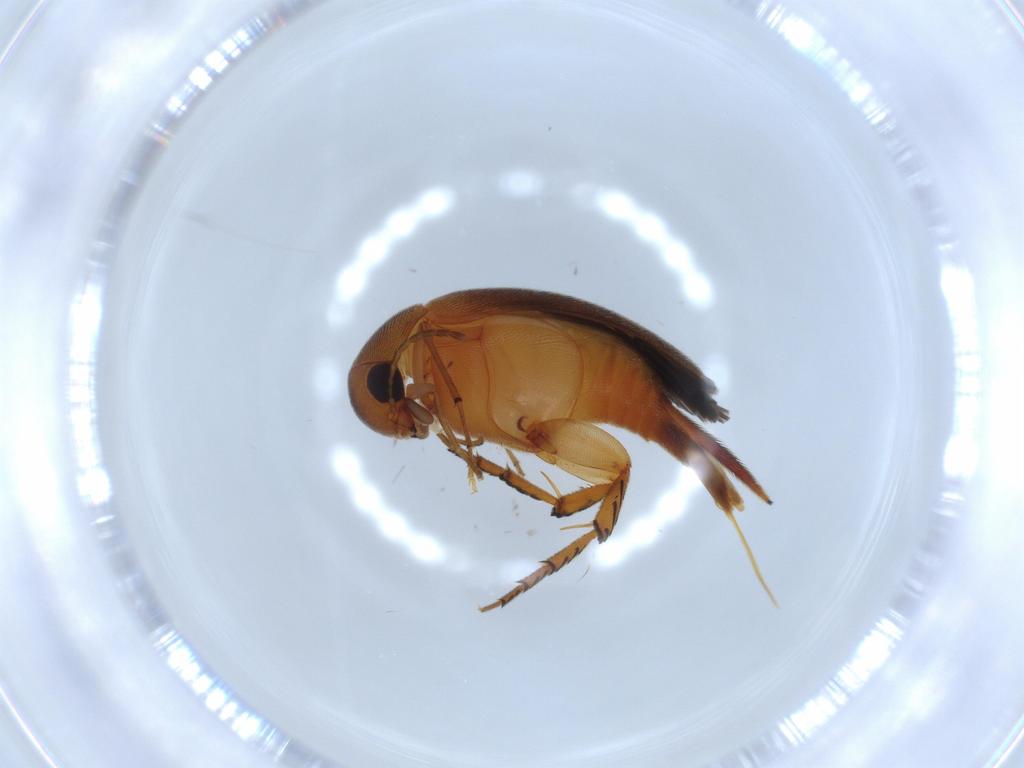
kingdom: Animalia
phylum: Arthropoda
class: Insecta
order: Coleoptera
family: Mordellidae
